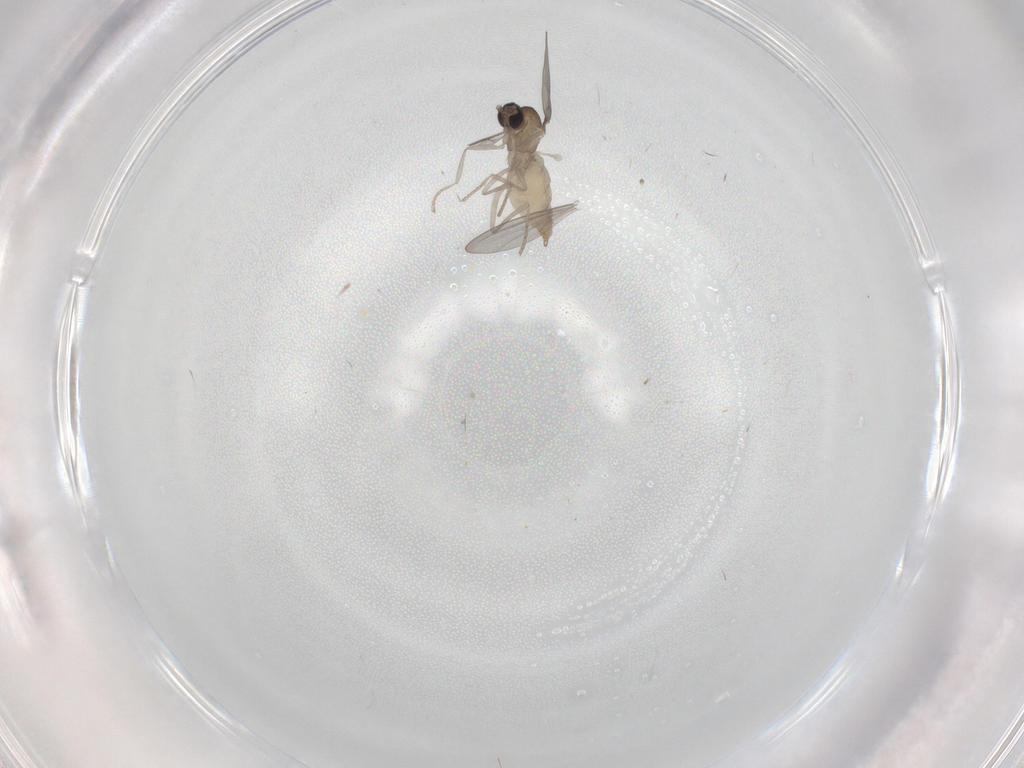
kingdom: Animalia
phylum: Arthropoda
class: Insecta
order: Diptera
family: Cecidomyiidae
